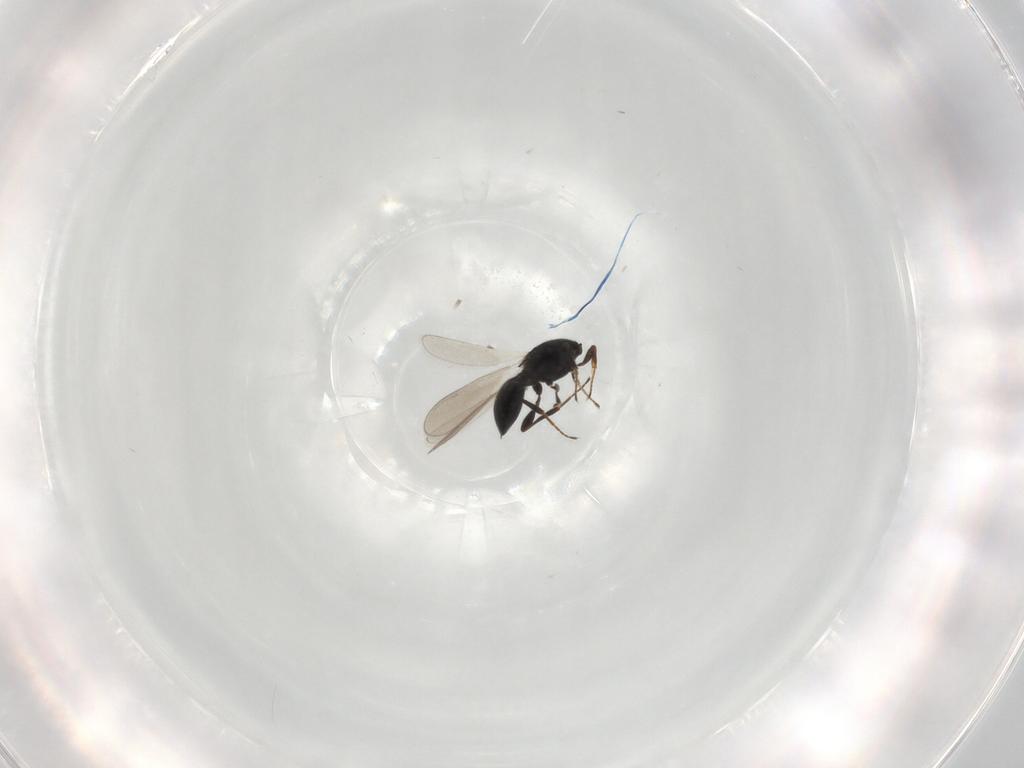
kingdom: Animalia
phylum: Arthropoda
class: Insecta
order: Hymenoptera
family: Platygastridae
